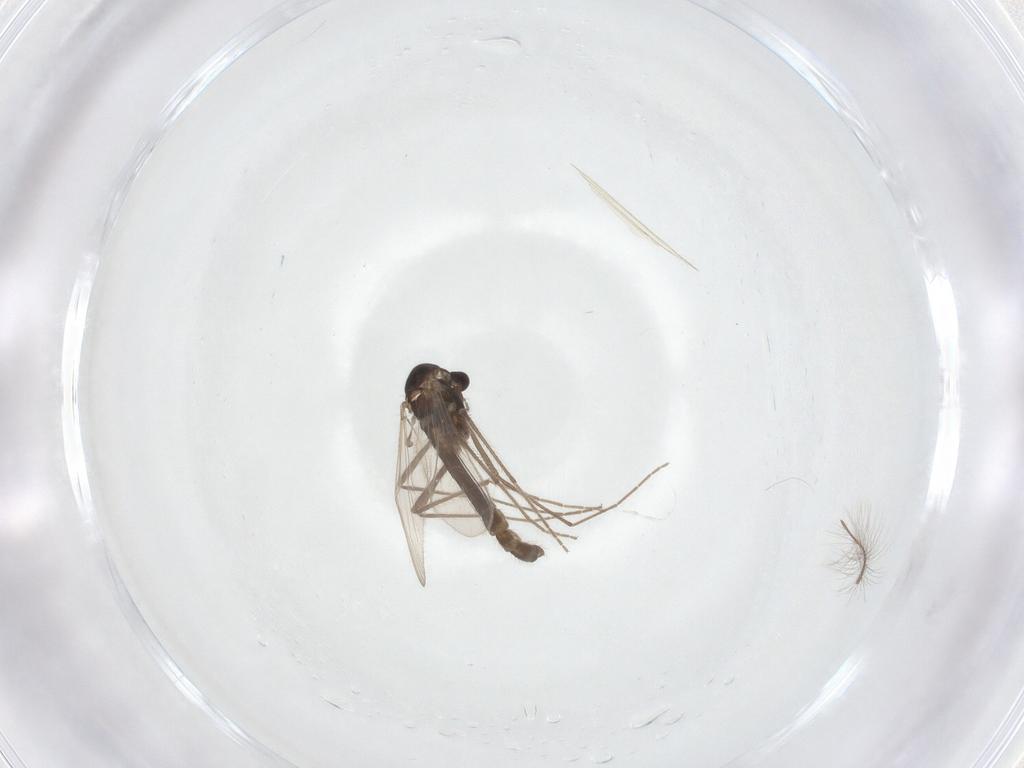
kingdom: Animalia
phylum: Arthropoda
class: Insecta
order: Diptera
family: Chironomidae
